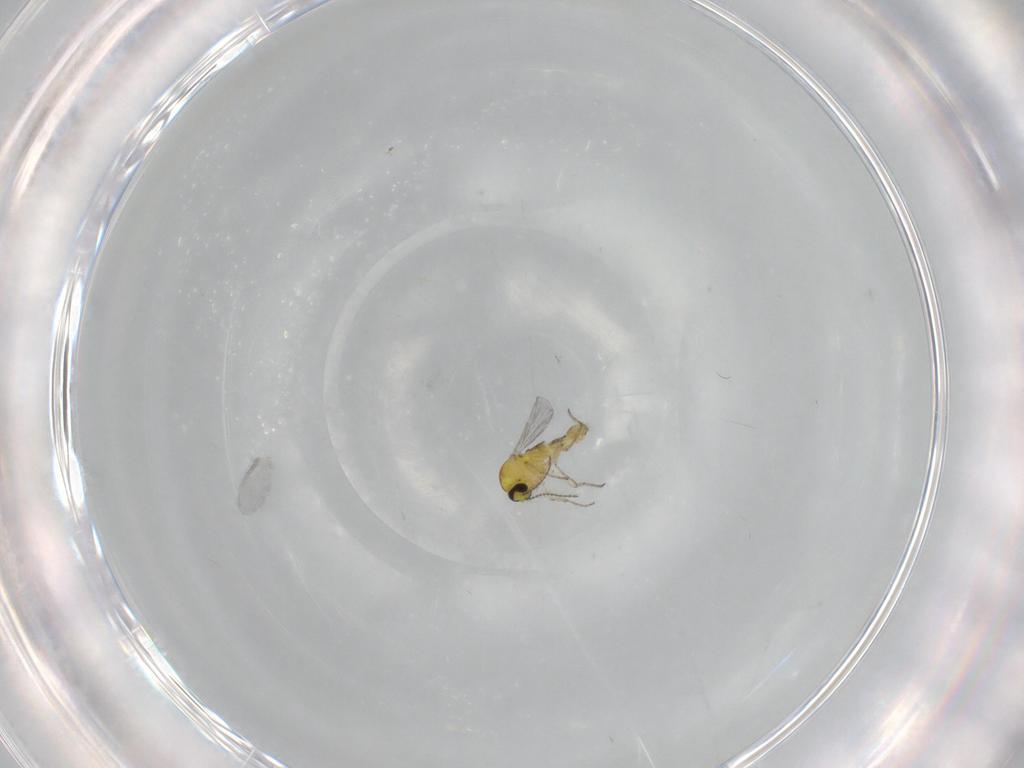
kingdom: Animalia
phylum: Arthropoda
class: Insecta
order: Diptera
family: Ceratopogonidae
